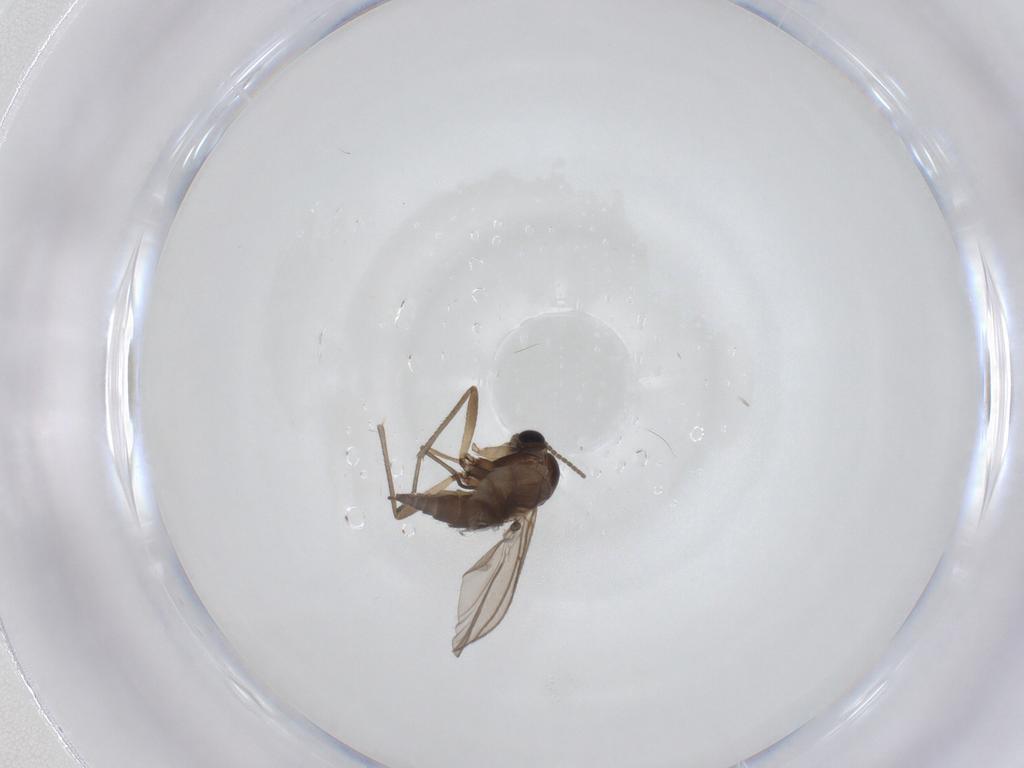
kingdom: Animalia
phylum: Arthropoda
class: Insecta
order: Diptera
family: Sciaridae
